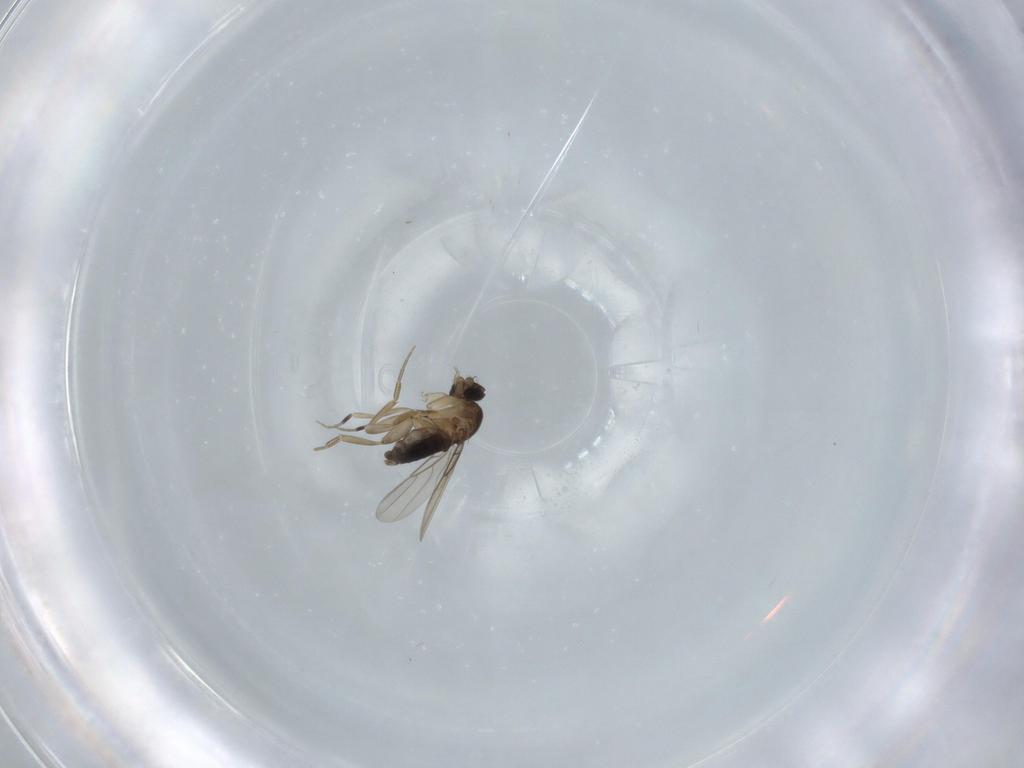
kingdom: Animalia
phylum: Arthropoda
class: Insecta
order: Diptera
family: Phoridae
